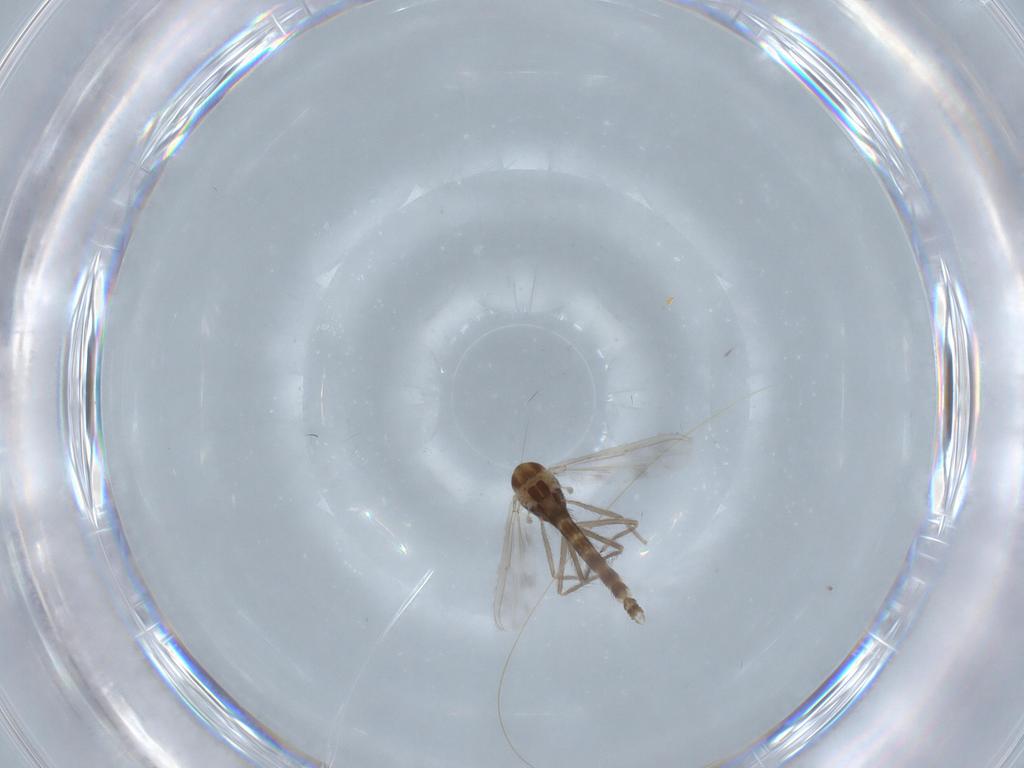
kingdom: Animalia
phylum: Arthropoda
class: Insecta
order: Diptera
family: Chironomidae
